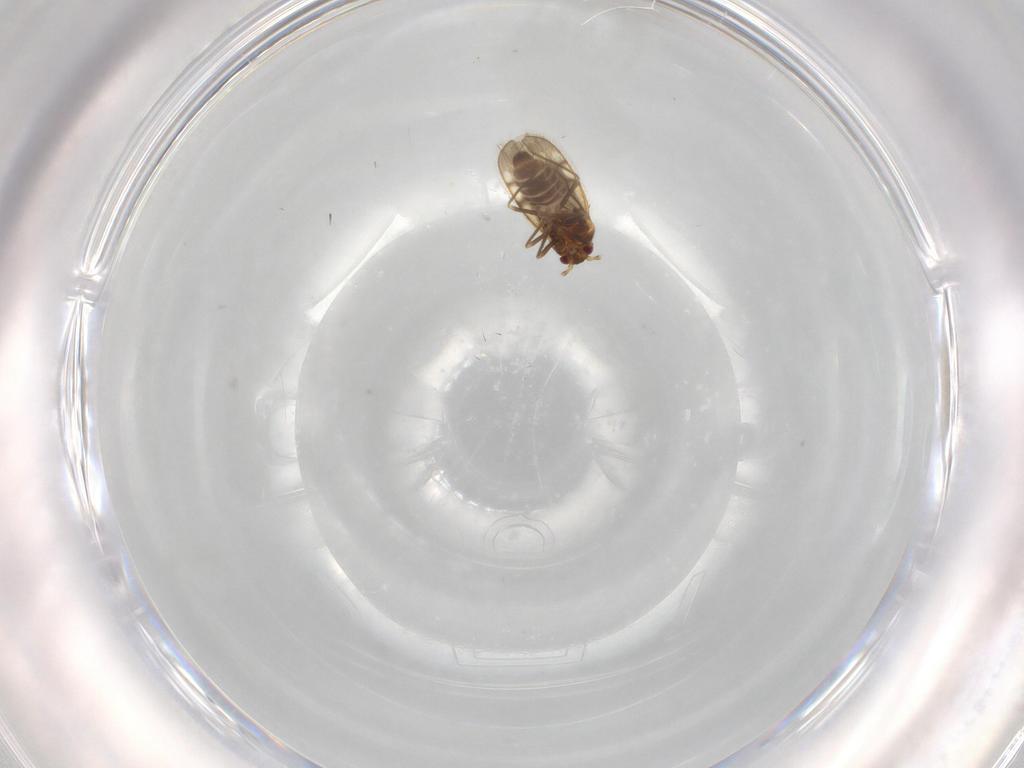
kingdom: Animalia
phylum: Arthropoda
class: Insecta
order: Hemiptera
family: Schizopteridae
